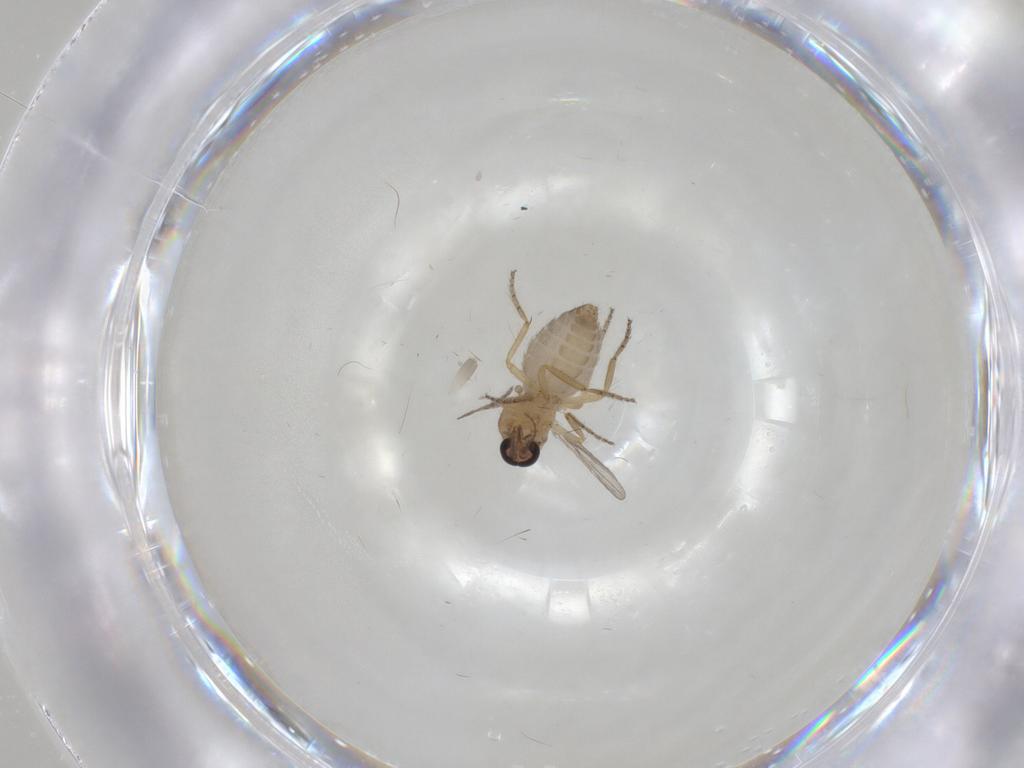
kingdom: Animalia
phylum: Arthropoda
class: Insecta
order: Diptera
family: Ceratopogonidae
